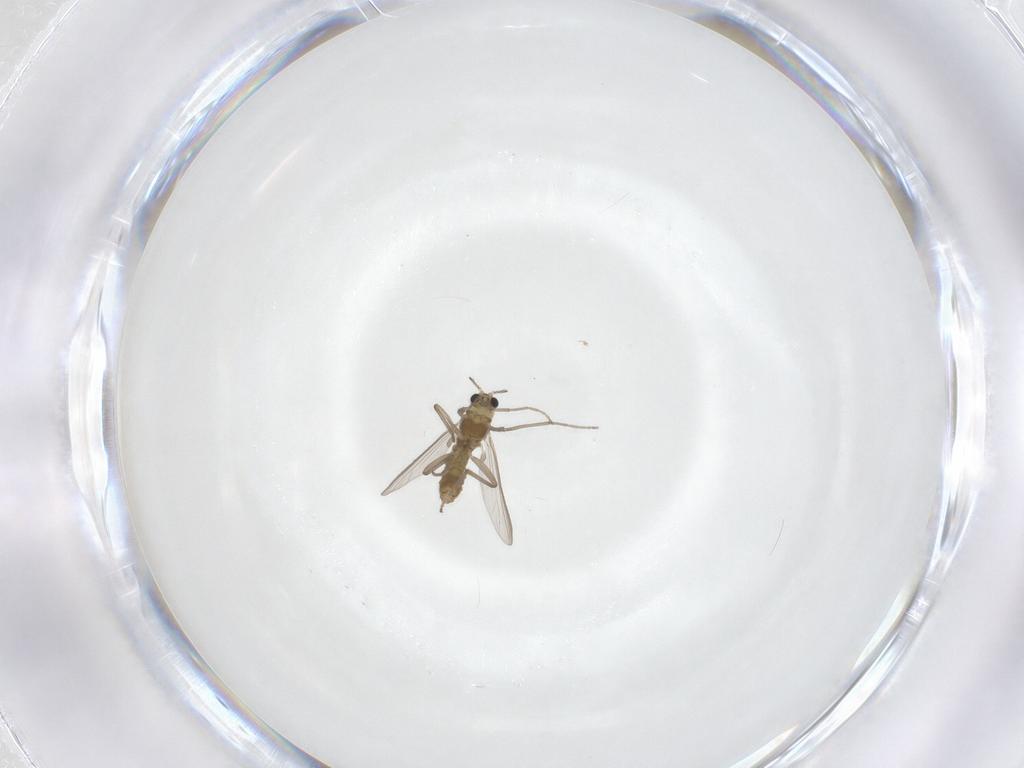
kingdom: Animalia
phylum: Arthropoda
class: Insecta
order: Diptera
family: Chironomidae
